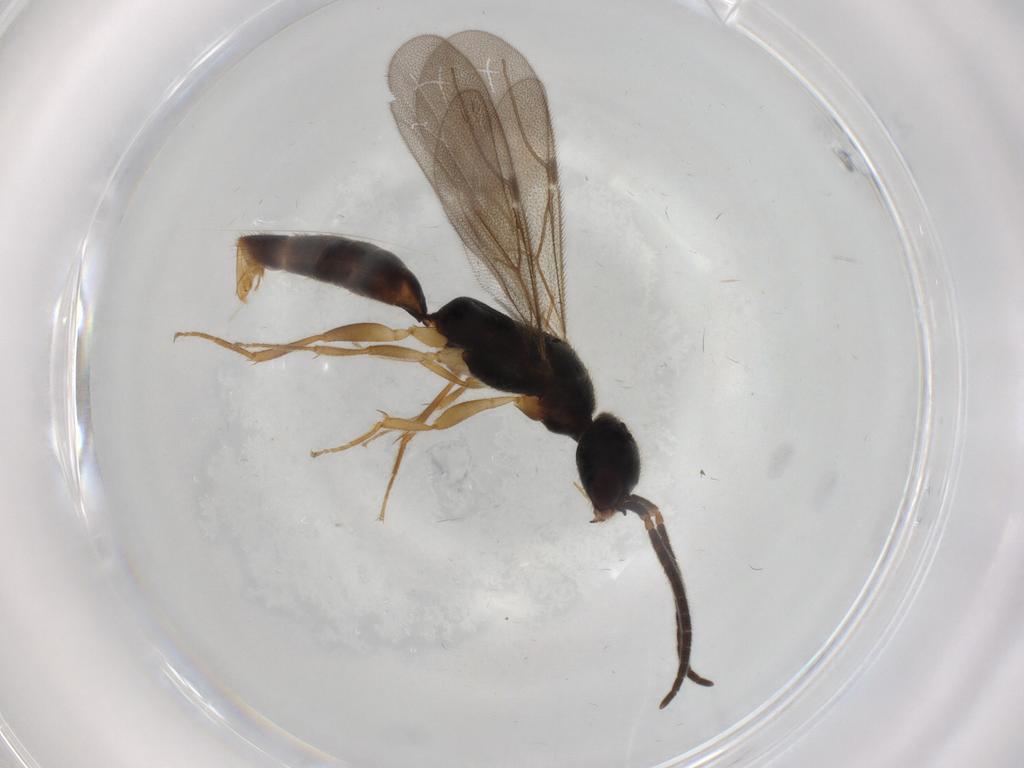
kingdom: Animalia
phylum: Arthropoda
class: Insecta
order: Hymenoptera
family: Bethylidae
